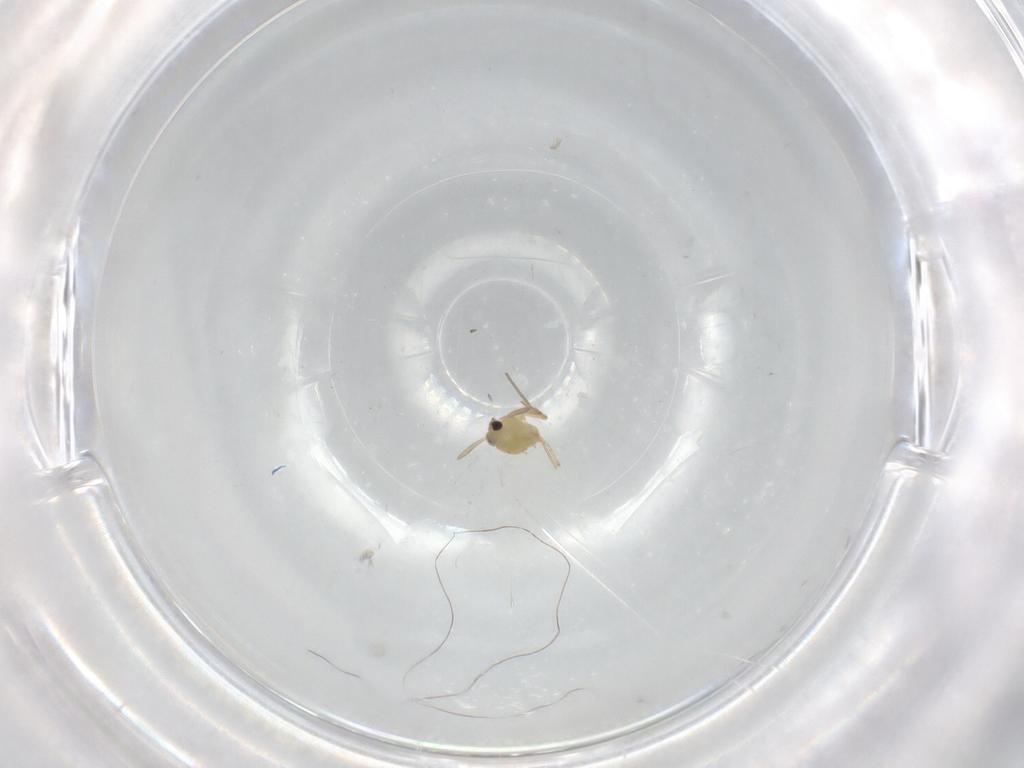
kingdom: Animalia
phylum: Arthropoda
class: Insecta
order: Diptera
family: Chironomidae
